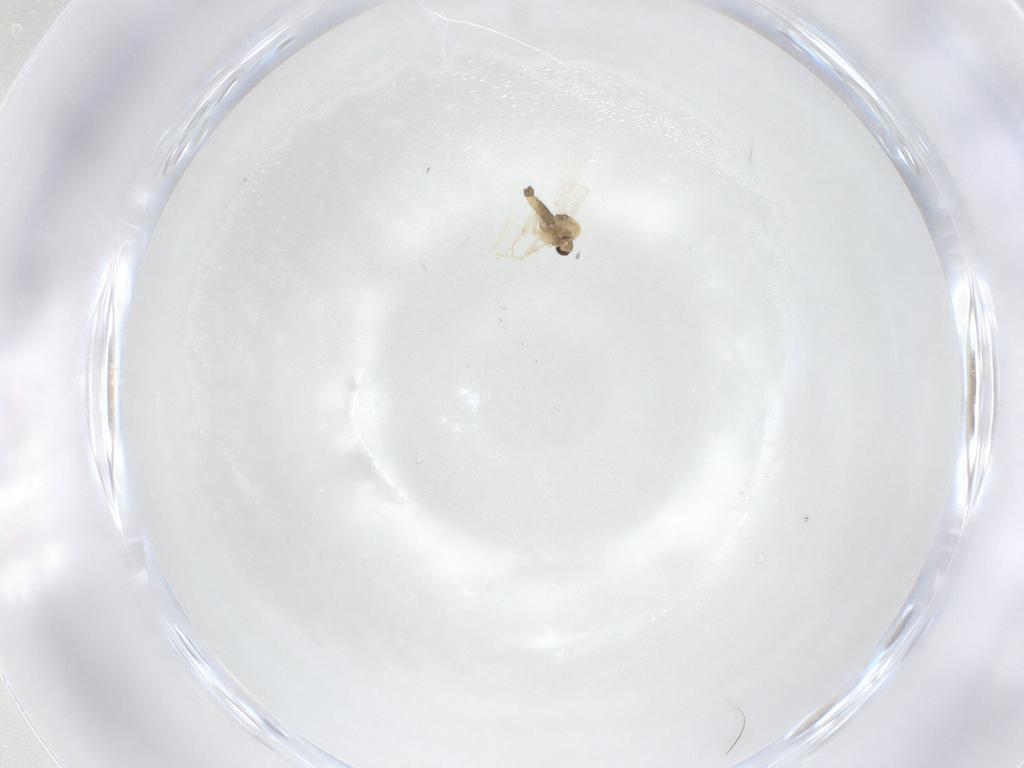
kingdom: Animalia
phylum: Arthropoda
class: Insecta
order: Diptera
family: Chironomidae
